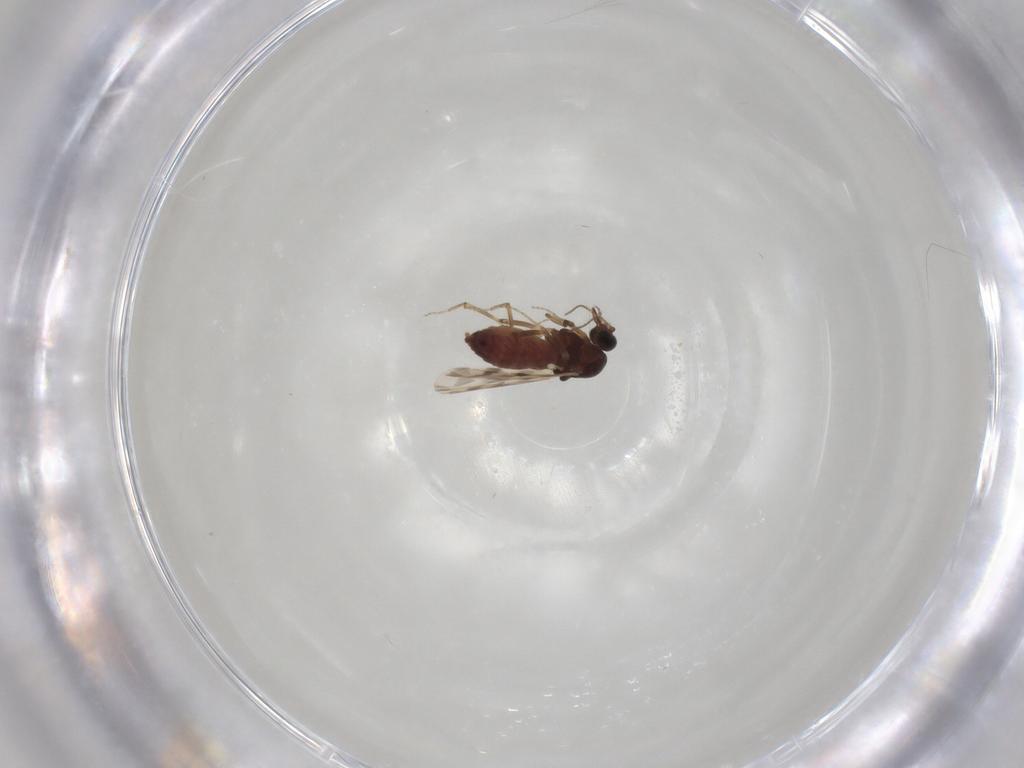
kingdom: Animalia
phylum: Arthropoda
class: Insecta
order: Diptera
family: Ceratopogonidae
